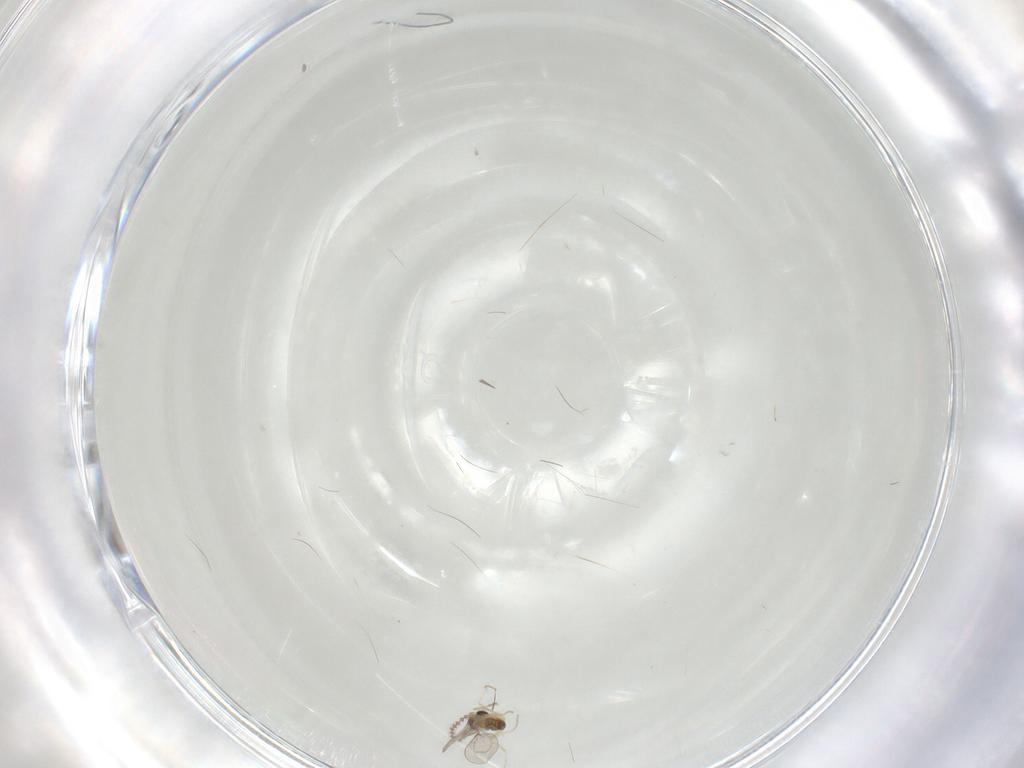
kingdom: Animalia
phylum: Arthropoda
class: Insecta
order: Diptera
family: Cecidomyiidae
